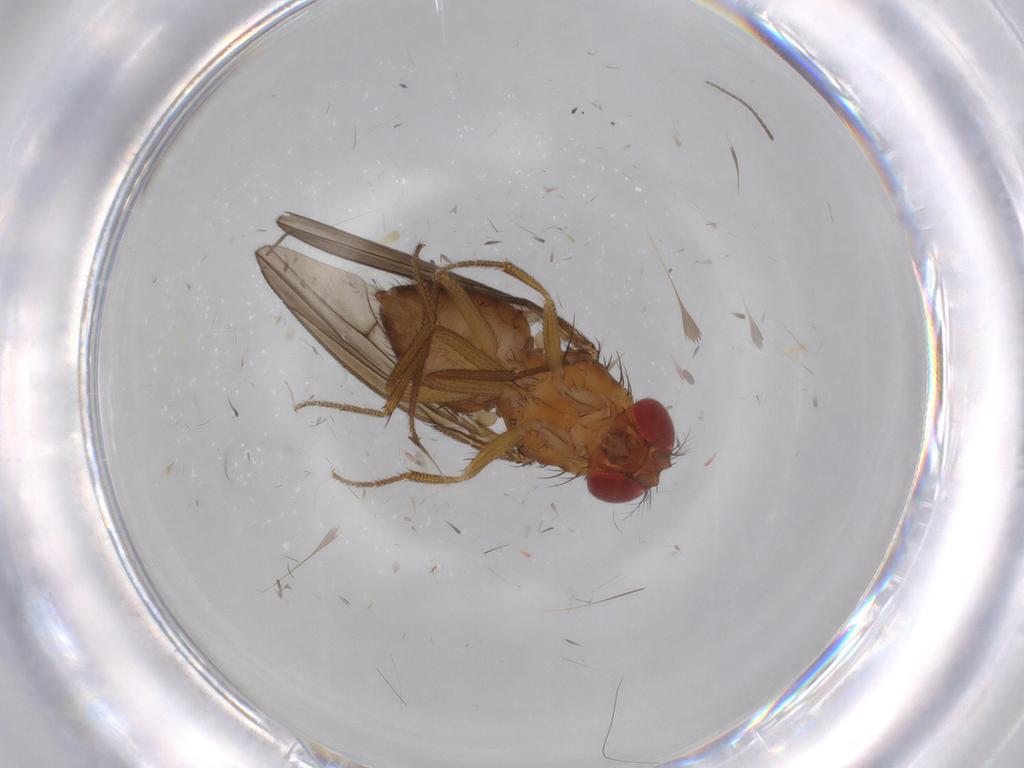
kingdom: Animalia
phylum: Arthropoda
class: Insecta
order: Diptera
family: Drosophilidae
